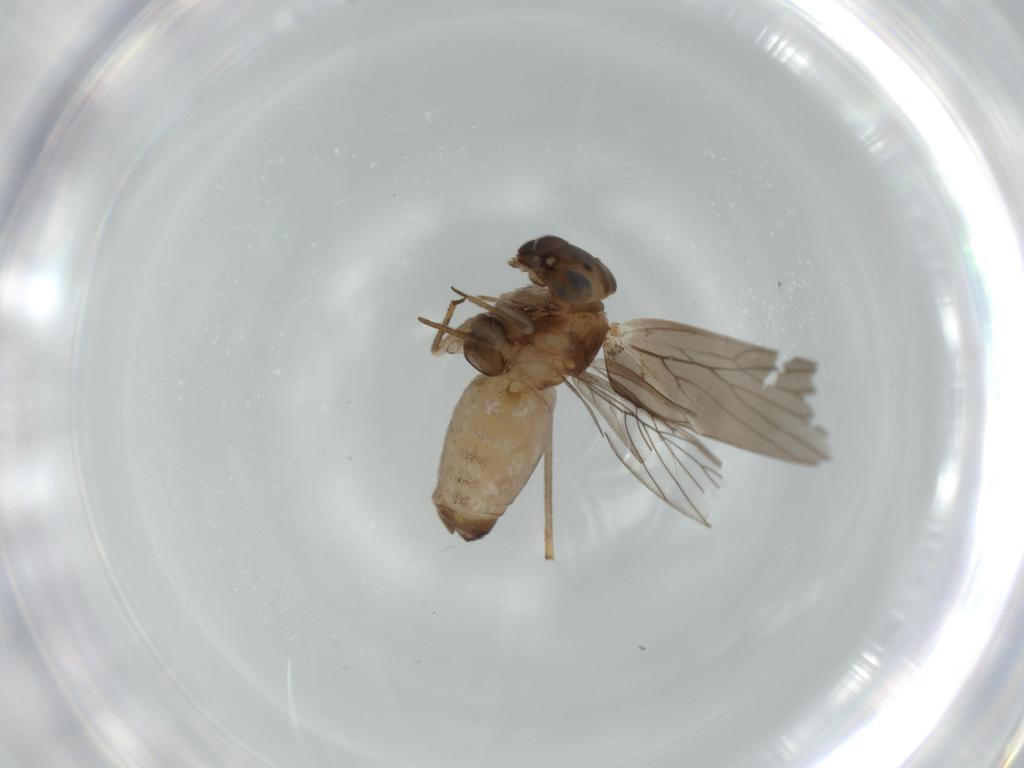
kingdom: Animalia
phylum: Arthropoda
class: Insecta
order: Psocodea
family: Lepidopsocidae
